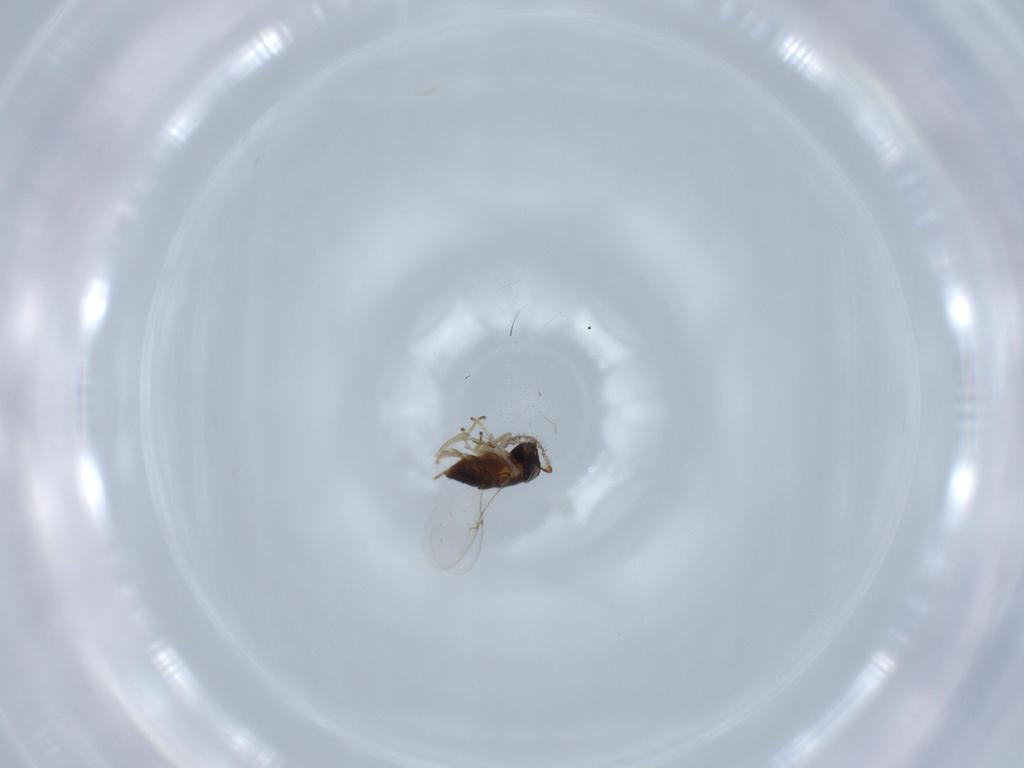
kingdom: Animalia
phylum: Arthropoda
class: Insecta
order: Diptera
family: Ceratopogonidae
